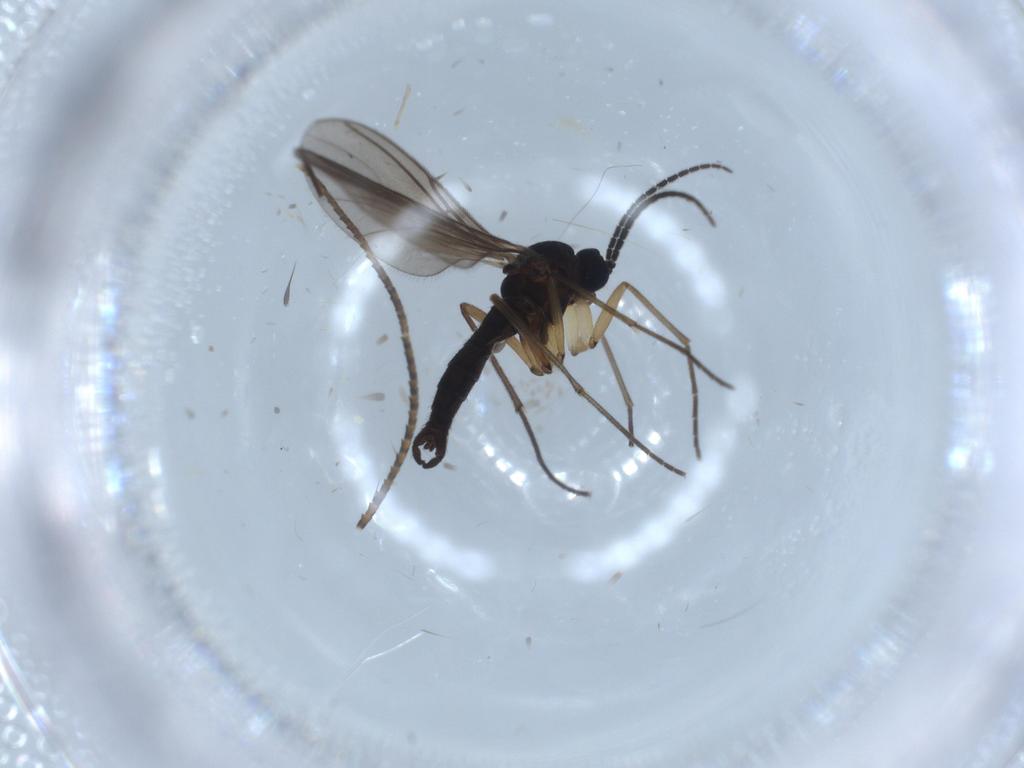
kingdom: Animalia
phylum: Arthropoda
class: Insecta
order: Diptera
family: Sciaridae
